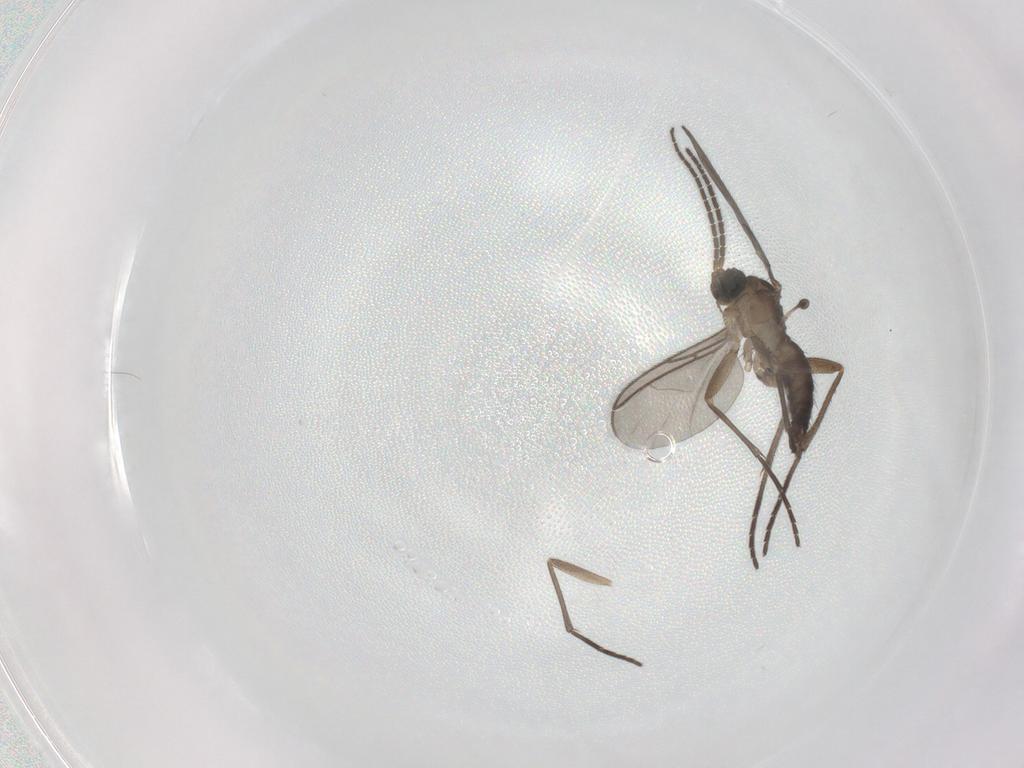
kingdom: Animalia
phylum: Arthropoda
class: Insecta
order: Diptera
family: Sciaridae
